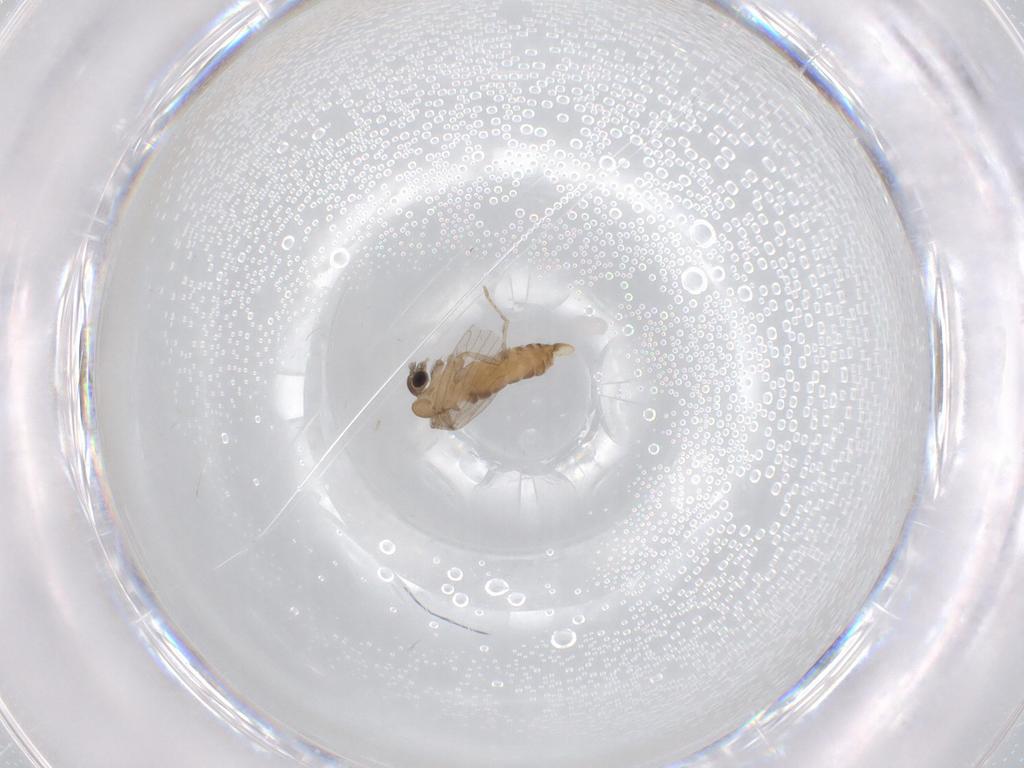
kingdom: Animalia
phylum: Arthropoda
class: Insecta
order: Diptera
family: Psychodidae
